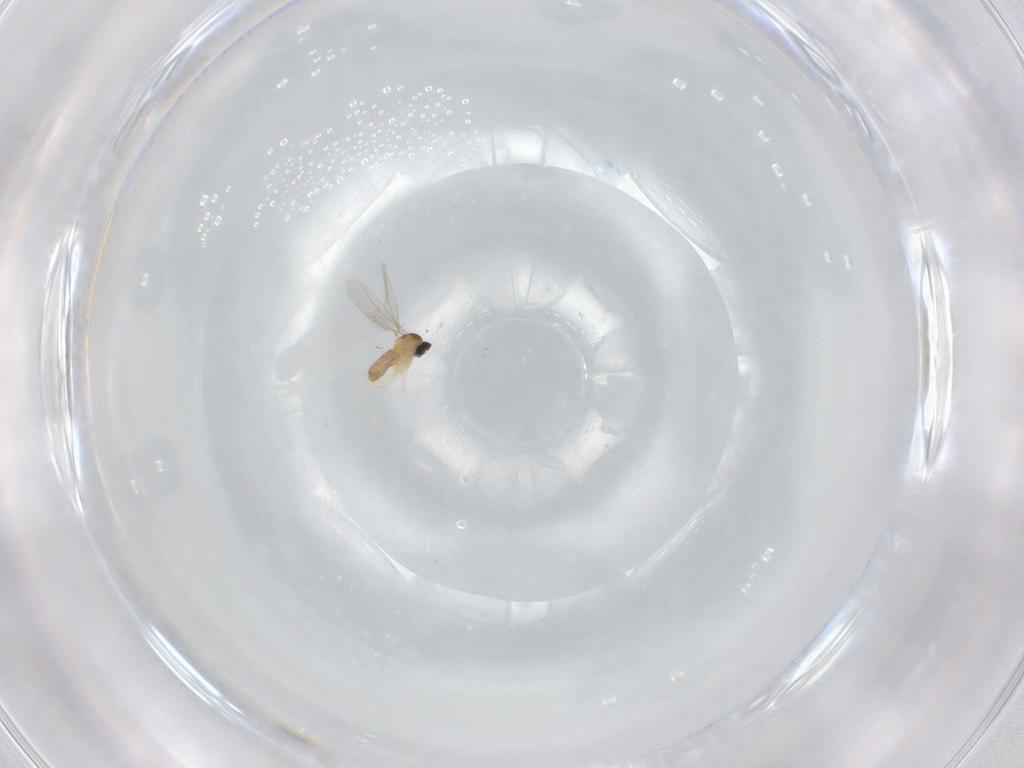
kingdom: Animalia
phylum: Arthropoda
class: Insecta
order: Diptera
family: Cecidomyiidae
